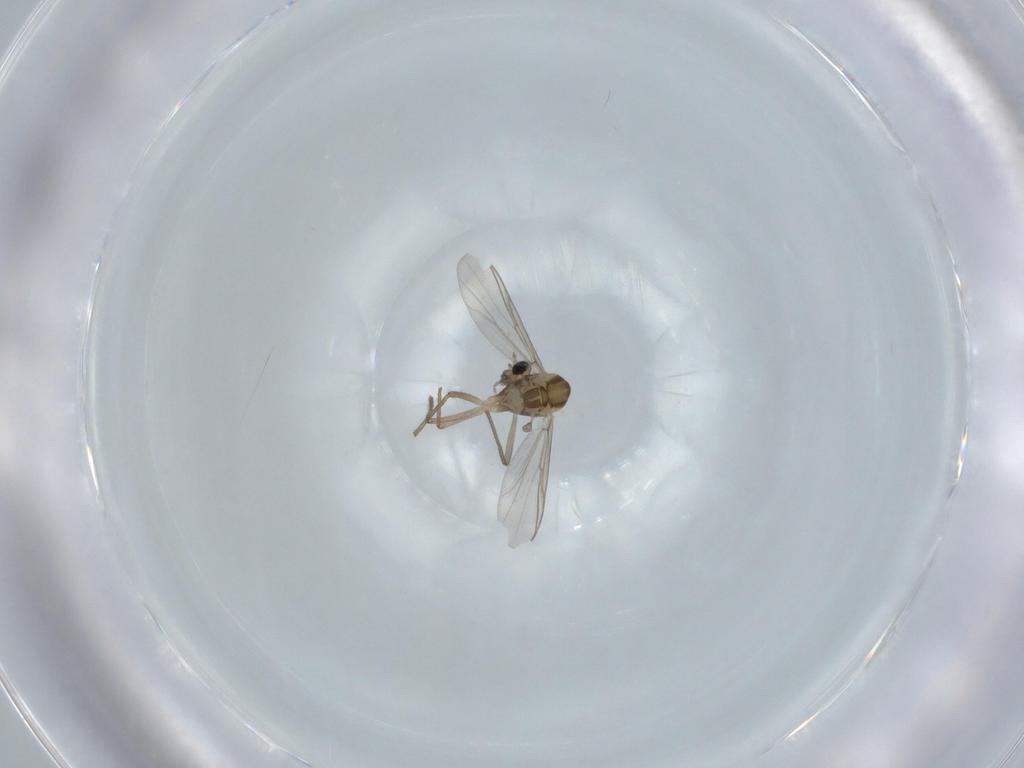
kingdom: Animalia
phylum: Arthropoda
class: Insecta
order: Diptera
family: Chironomidae
